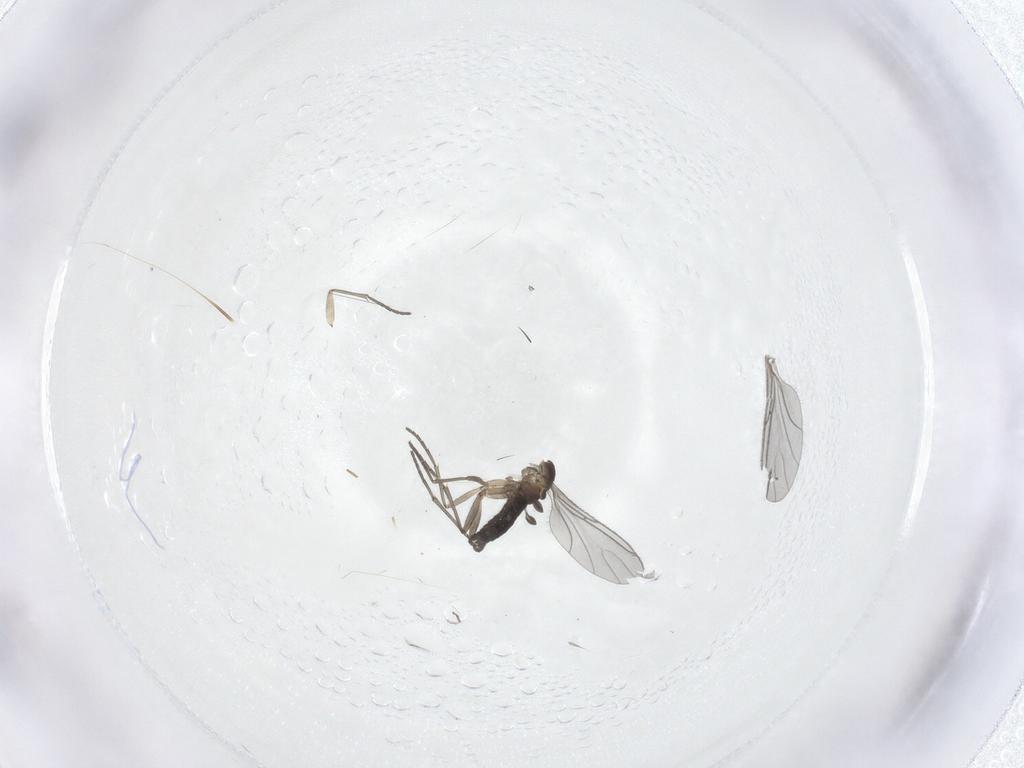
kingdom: Animalia
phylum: Arthropoda
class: Insecta
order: Diptera
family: Sciaridae
